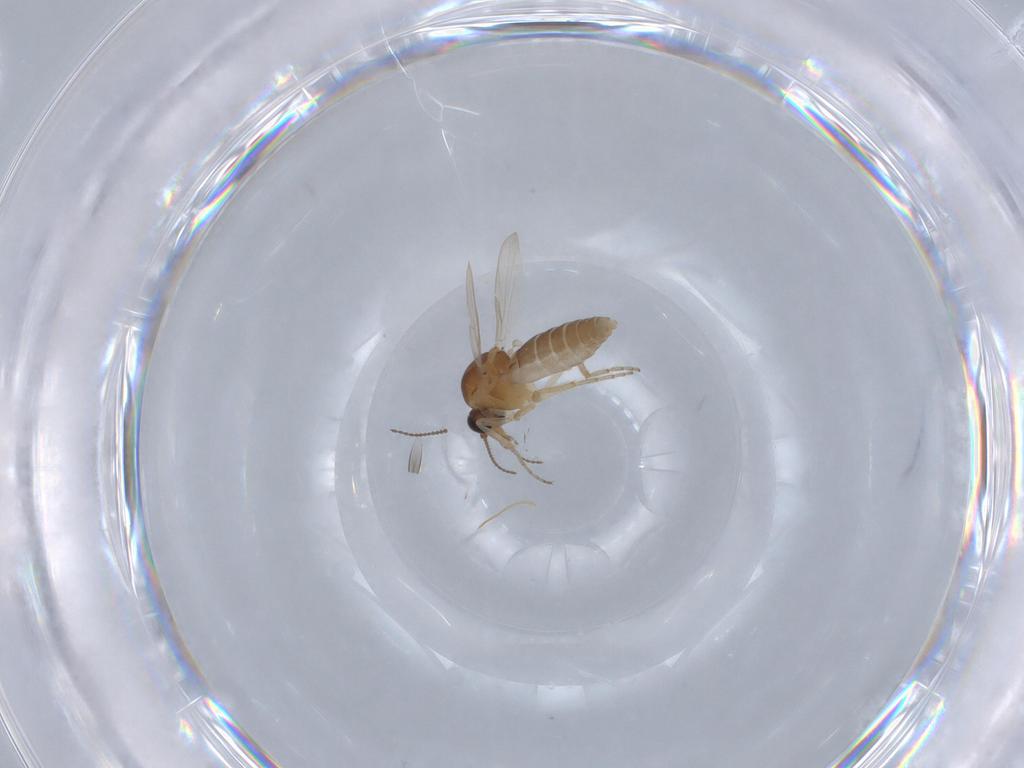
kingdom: Animalia
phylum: Arthropoda
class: Insecta
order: Diptera
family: Ceratopogonidae
